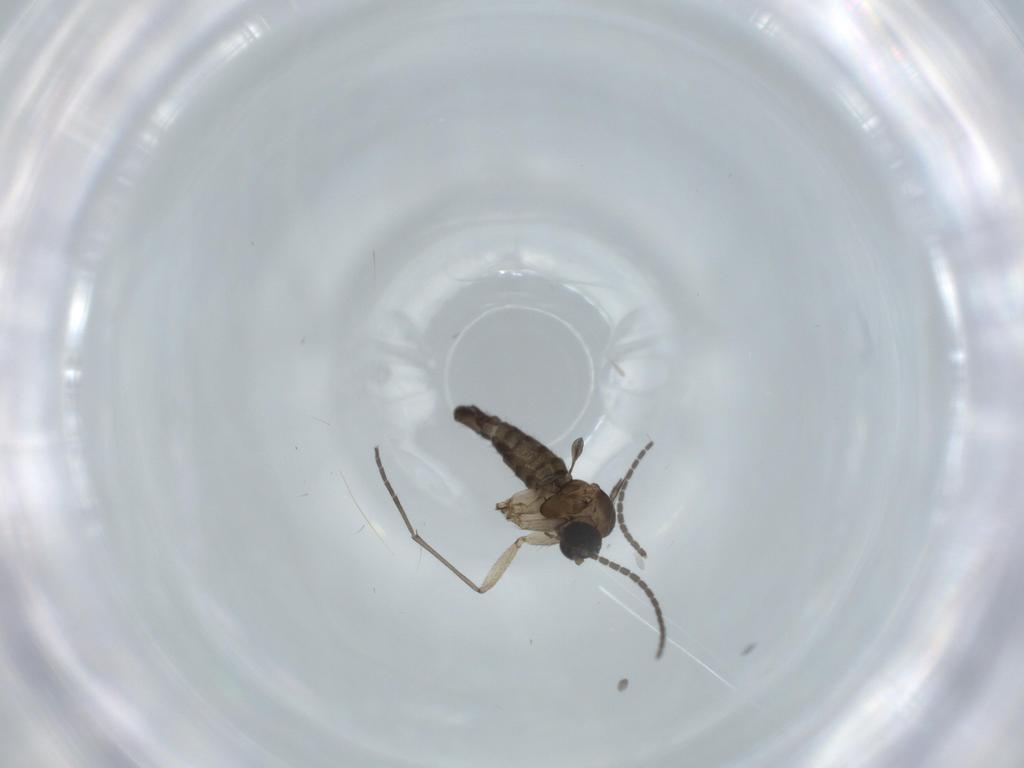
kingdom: Animalia
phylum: Arthropoda
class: Insecta
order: Diptera
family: Sciaridae
